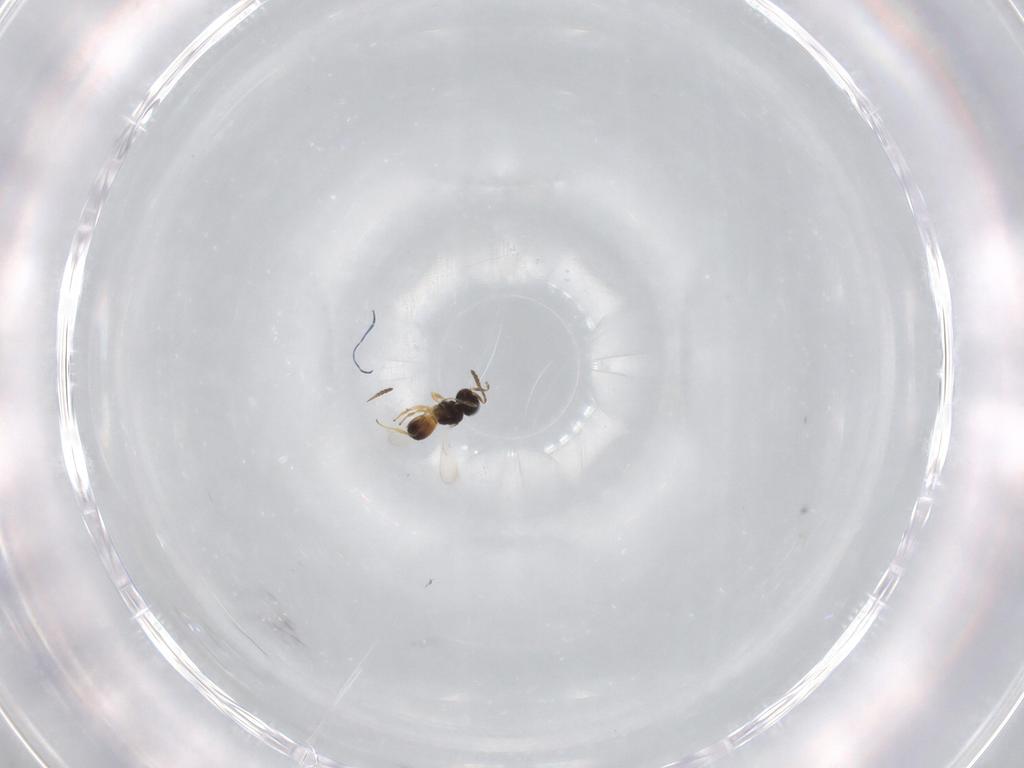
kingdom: Animalia
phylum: Arthropoda
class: Insecta
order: Hymenoptera
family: Scelionidae
